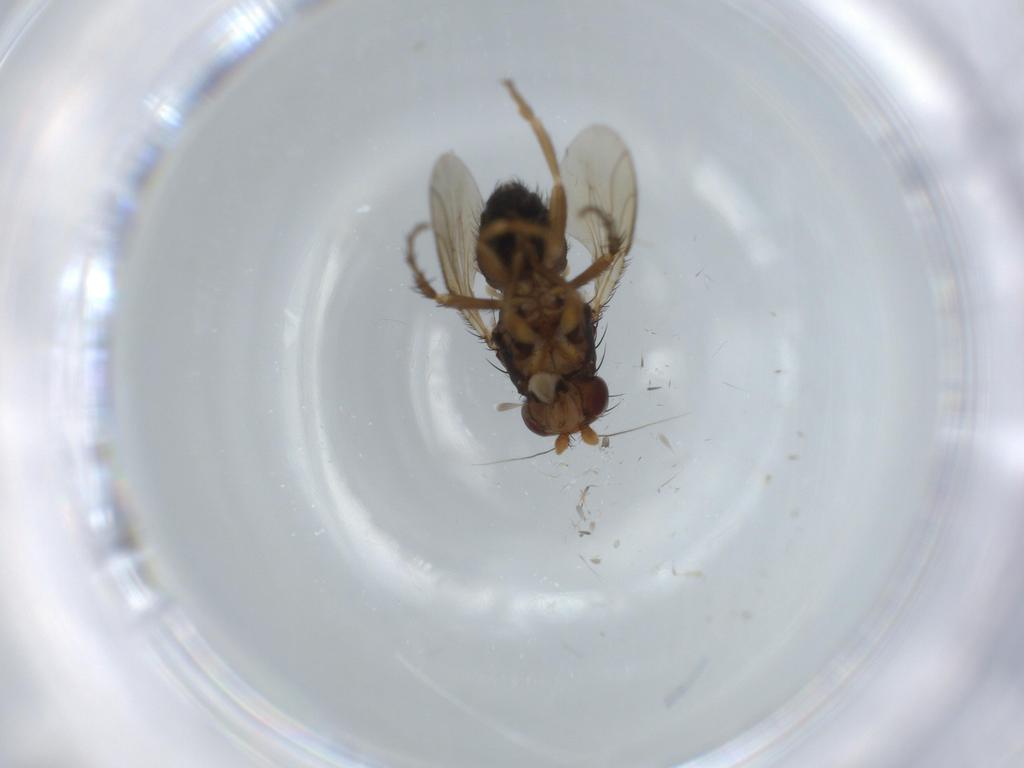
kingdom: Animalia
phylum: Arthropoda
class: Insecta
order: Diptera
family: Sphaeroceridae
